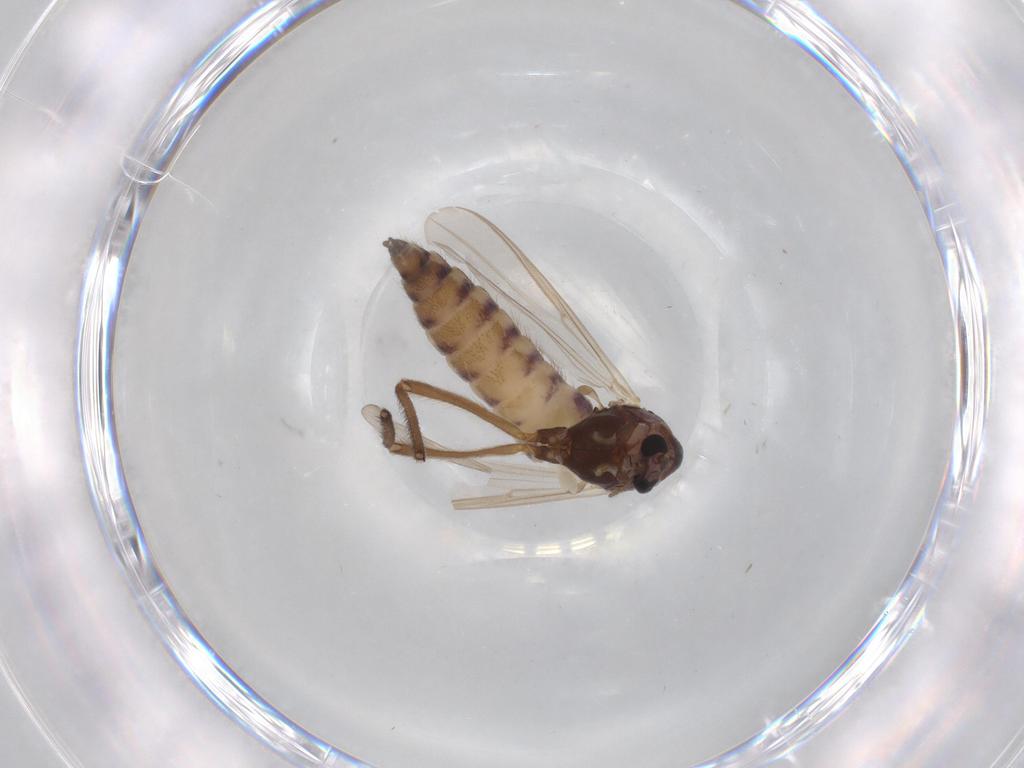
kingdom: Animalia
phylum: Arthropoda
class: Insecta
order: Diptera
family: Chironomidae
